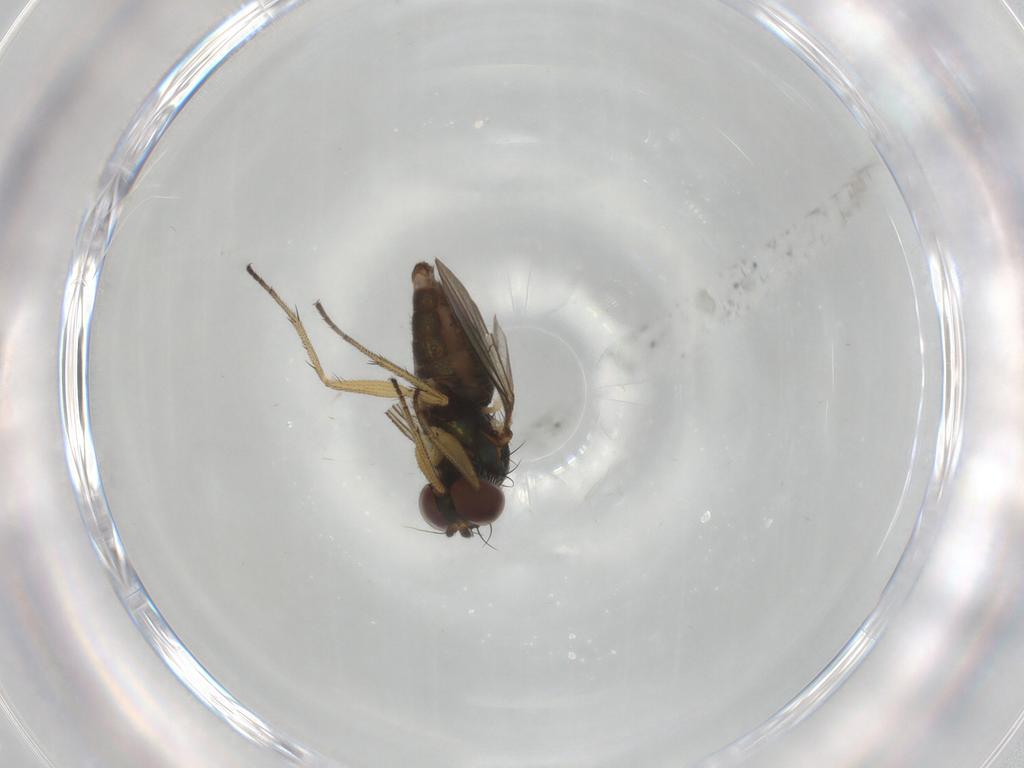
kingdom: Animalia
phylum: Arthropoda
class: Insecta
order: Diptera
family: Dolichopodidae
